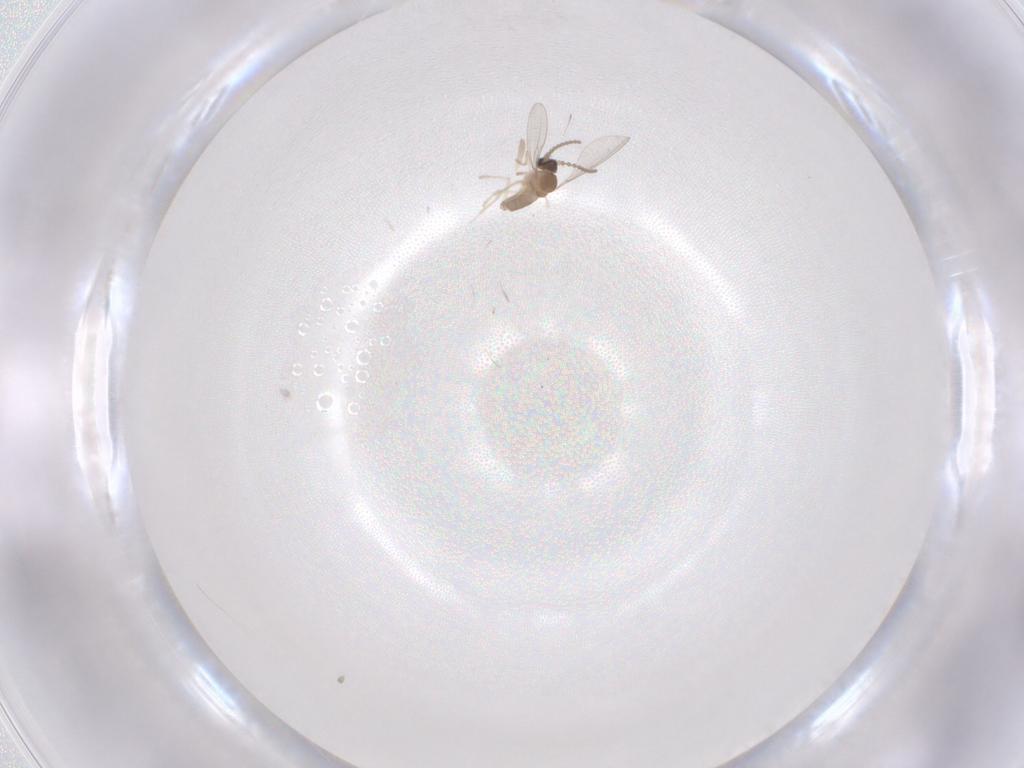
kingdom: Animalia
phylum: Arthropoda
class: Insecta
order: Diptera
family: Cecidomyiidae
